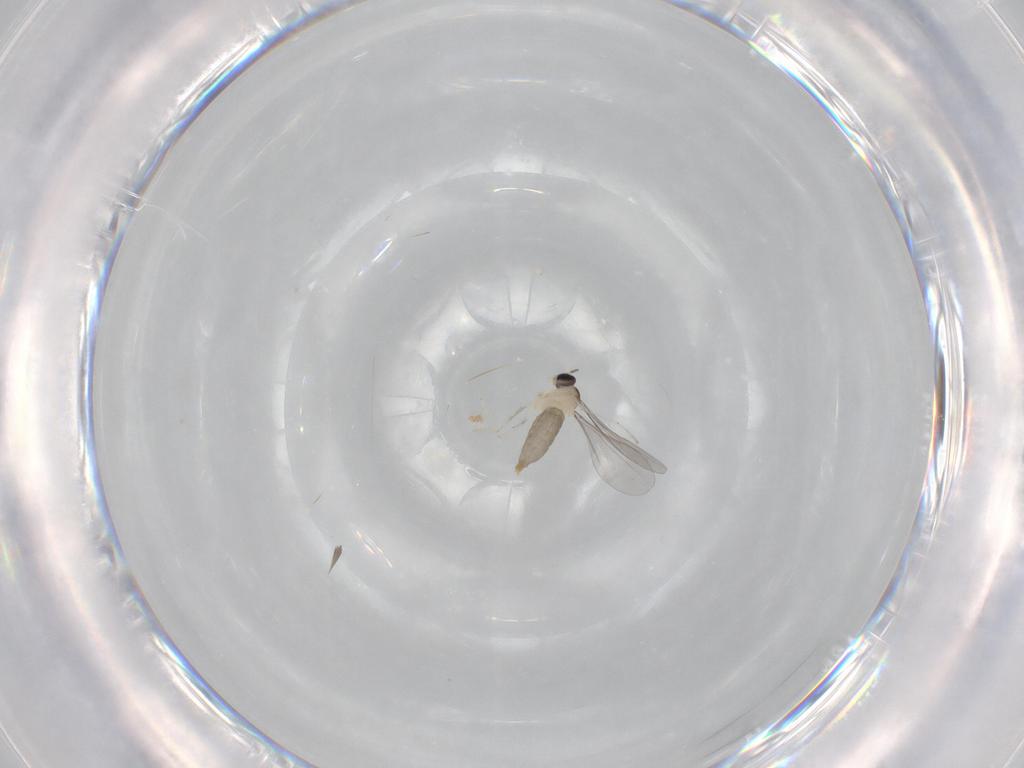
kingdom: Animalia
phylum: Arthropoda
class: Insecta
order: Diptera
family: Cecidomyiidae
